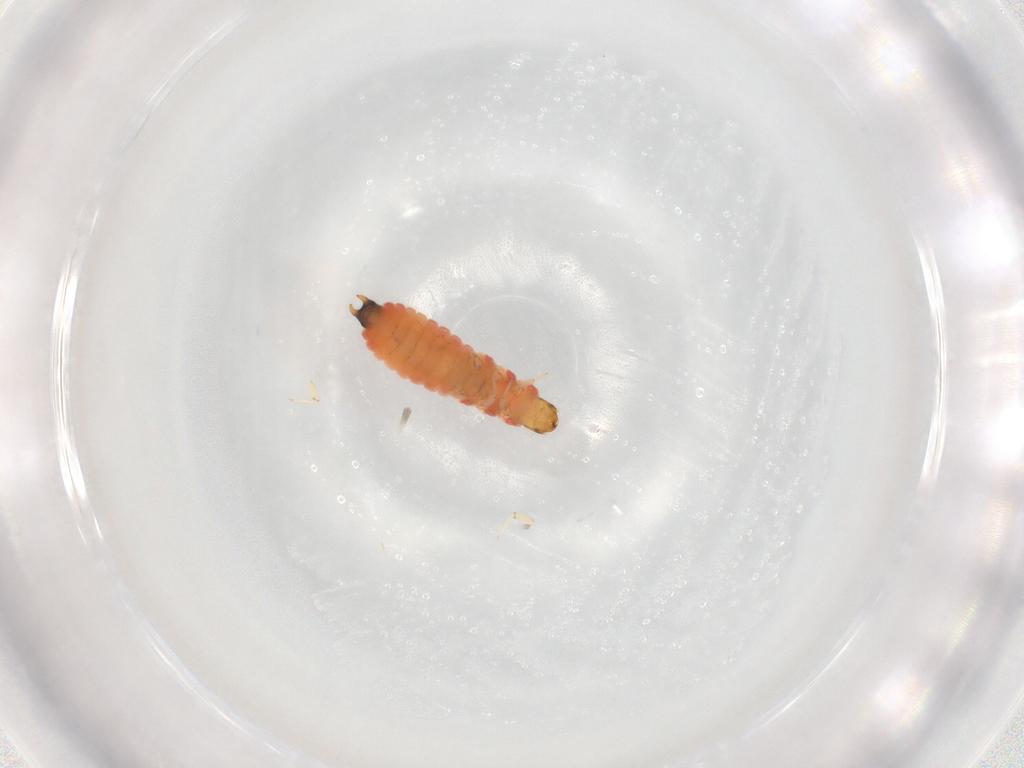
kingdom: Animalia
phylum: Arthropoda
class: Insecta
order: Coleoptera
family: Melyridae
